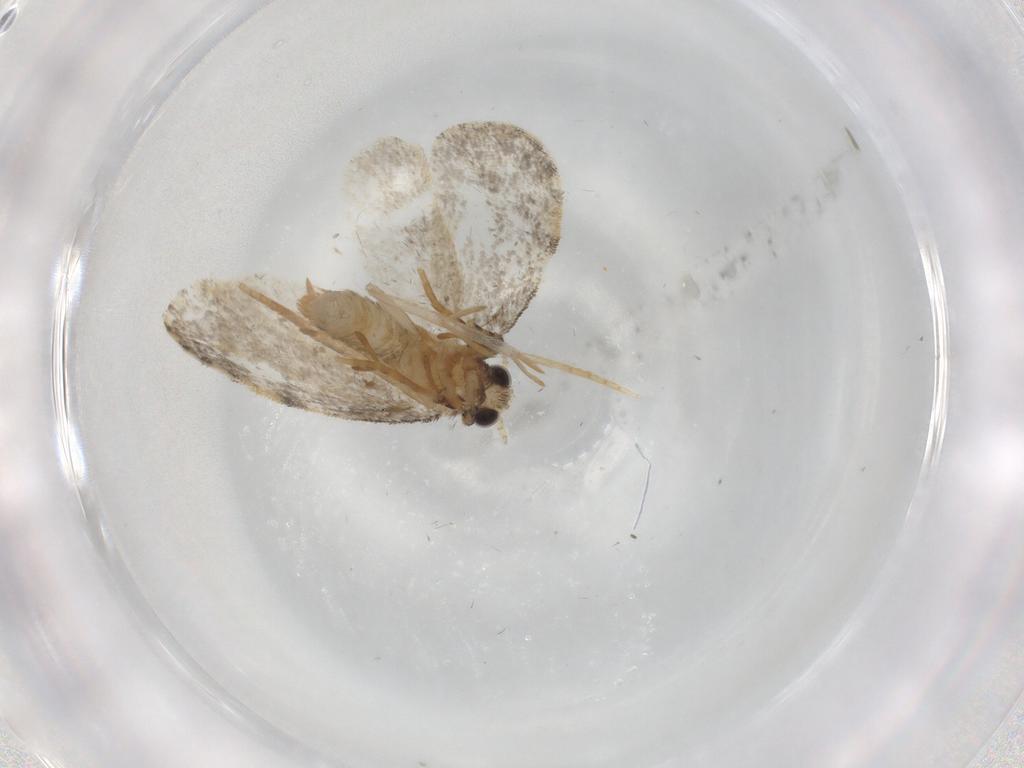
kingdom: Animalia
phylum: Arthropoda
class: Insecta
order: Lepidoptera
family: Psychidae
